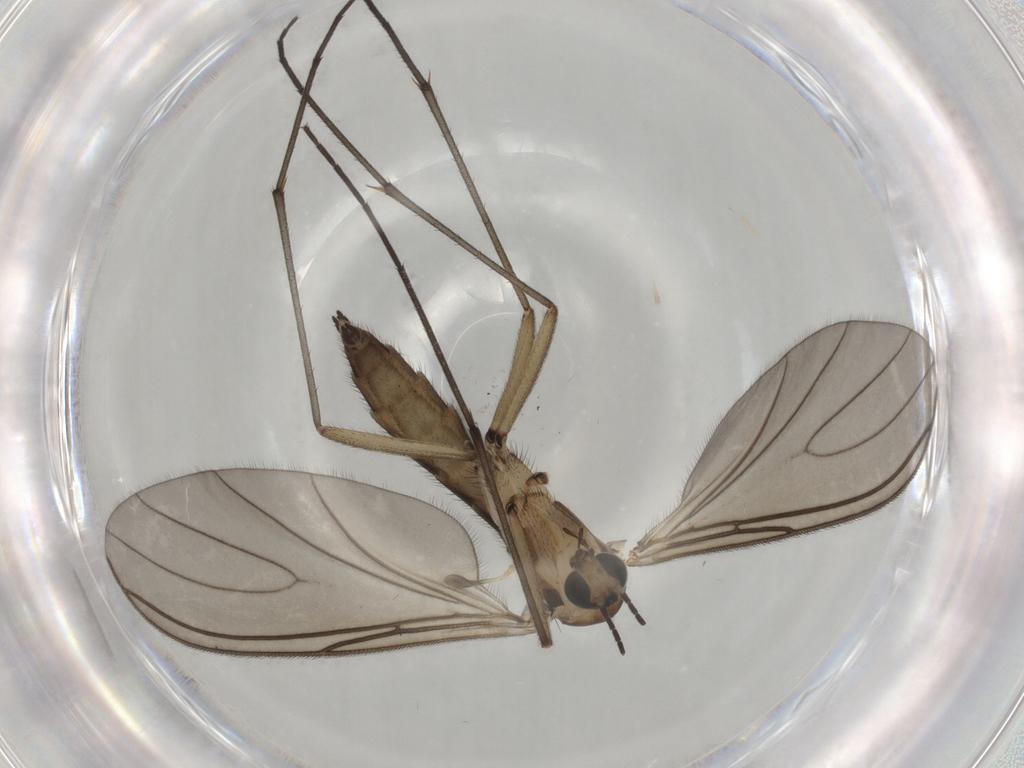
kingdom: Animalia
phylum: Arthropoda
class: Insecta
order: Diptera
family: Sciaridae
